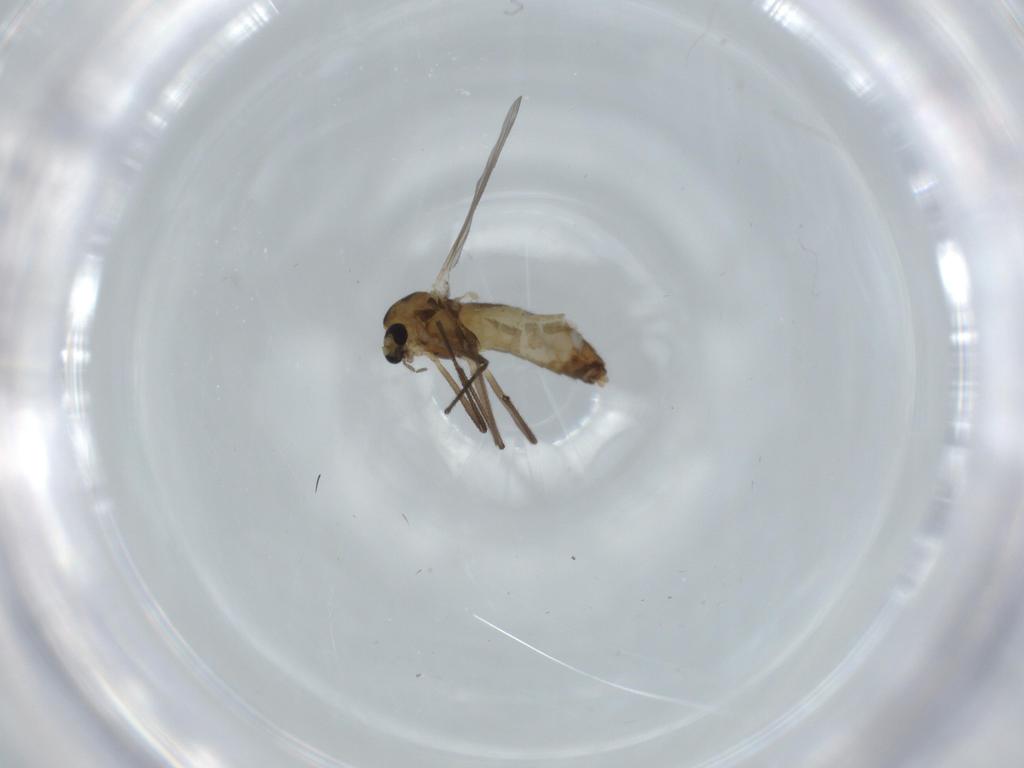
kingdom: Animalia
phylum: Arthropoda
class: Insecta
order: Diptera
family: Chironomidae
